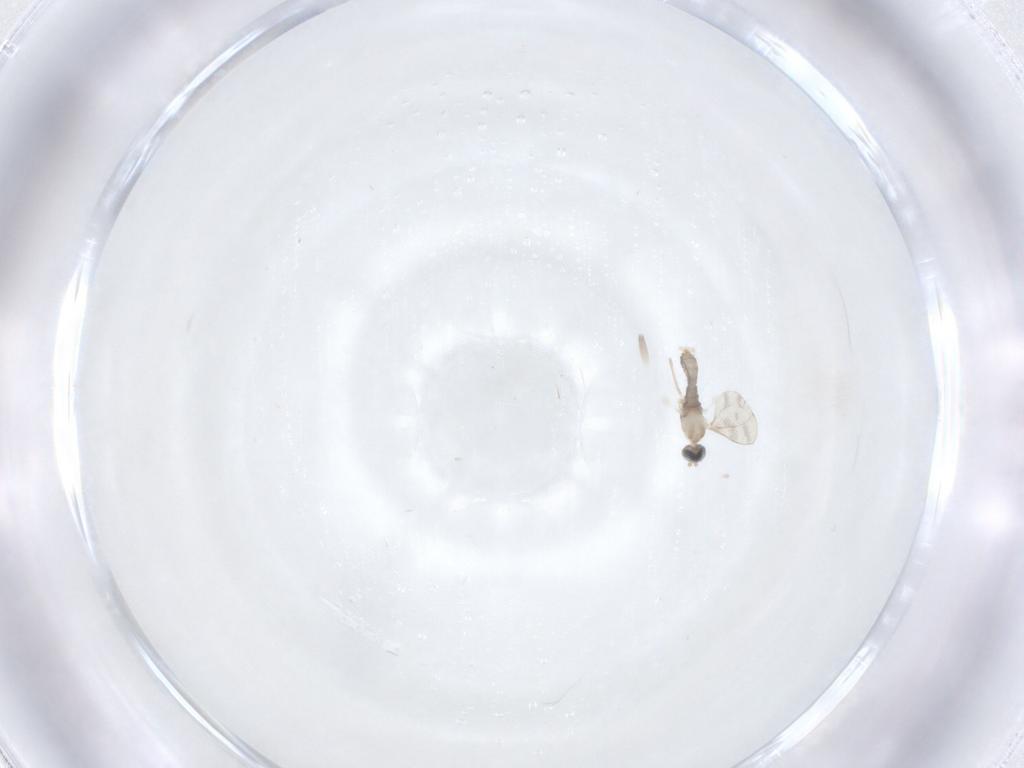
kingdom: Animalia
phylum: Arthropoda
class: Insecta
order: Diptera
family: Cecidomyiidae
